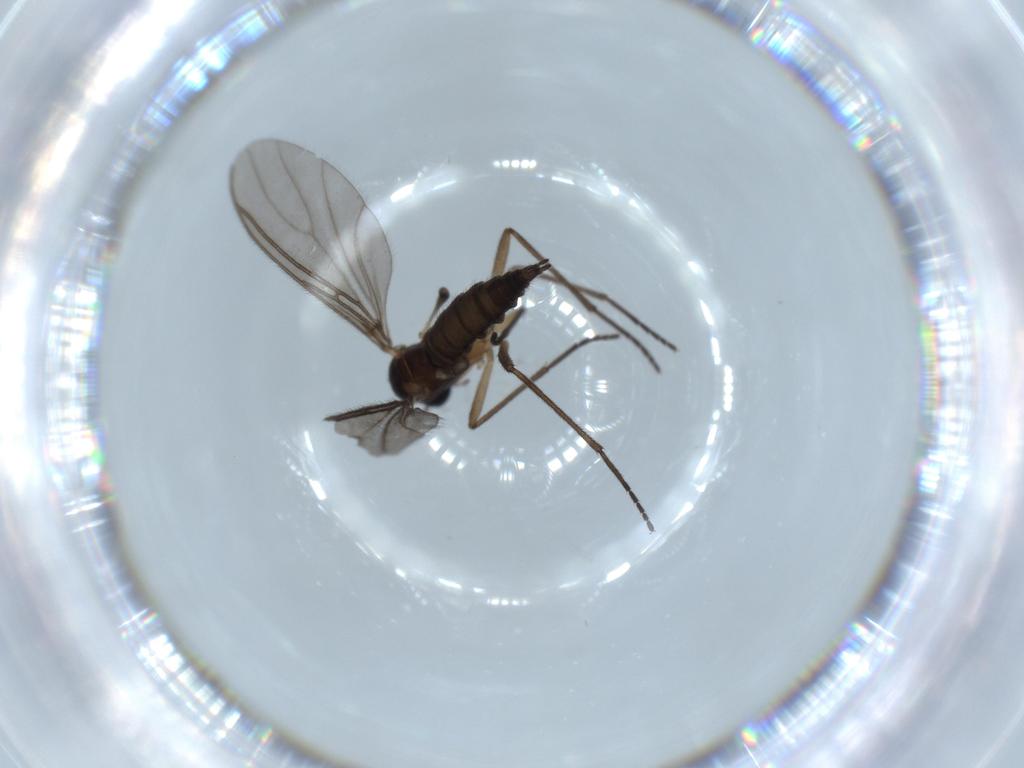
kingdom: Animalia
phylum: Arthropoda
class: Insecta
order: Diptera
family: Sciaridae
